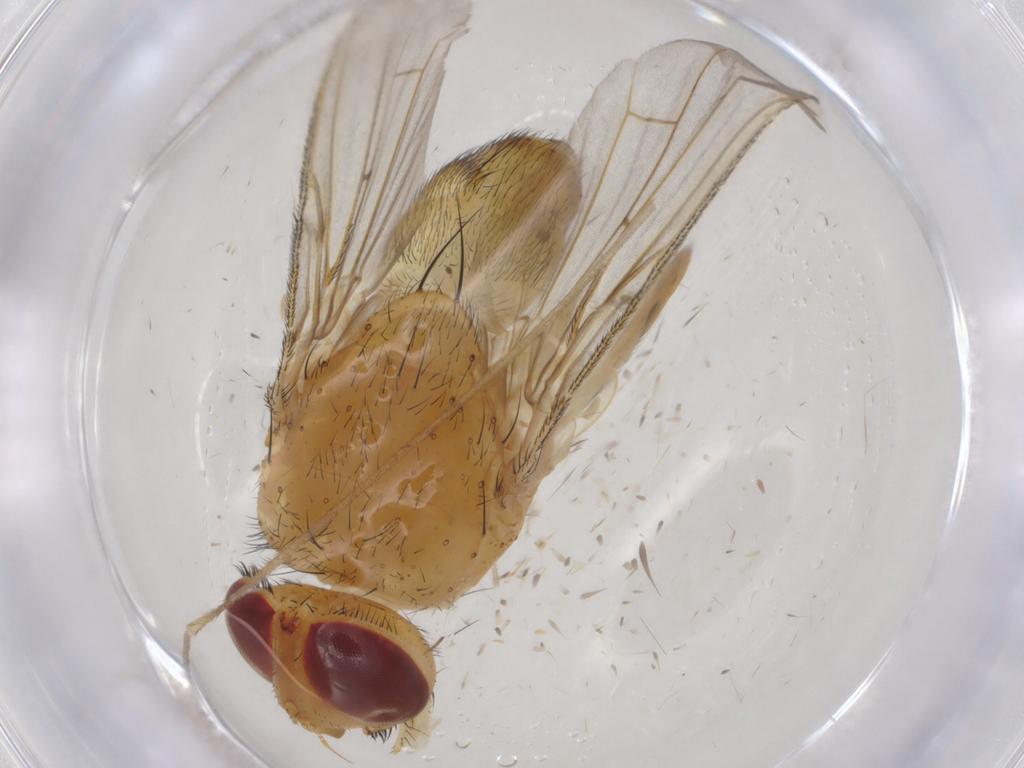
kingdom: Animalia
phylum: Arthropoda
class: Insecta
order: Diptera
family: Tachinidae
